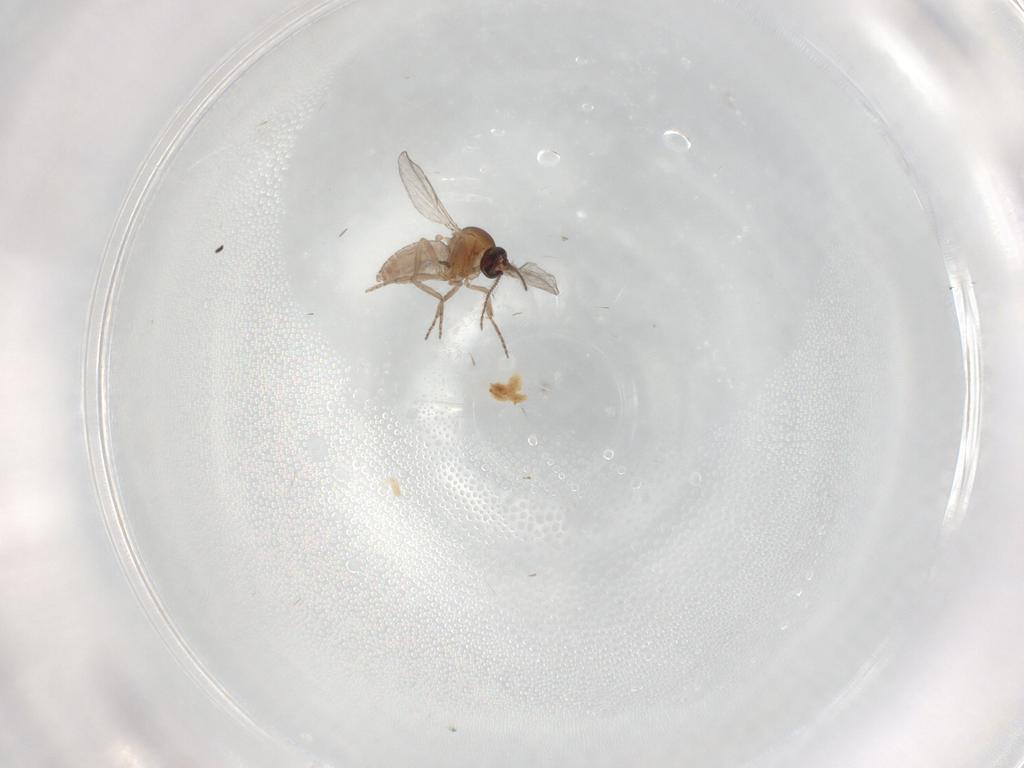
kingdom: Animalia
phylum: Arthropoda
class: Insecta
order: Diptera
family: Ceratopogonidae
